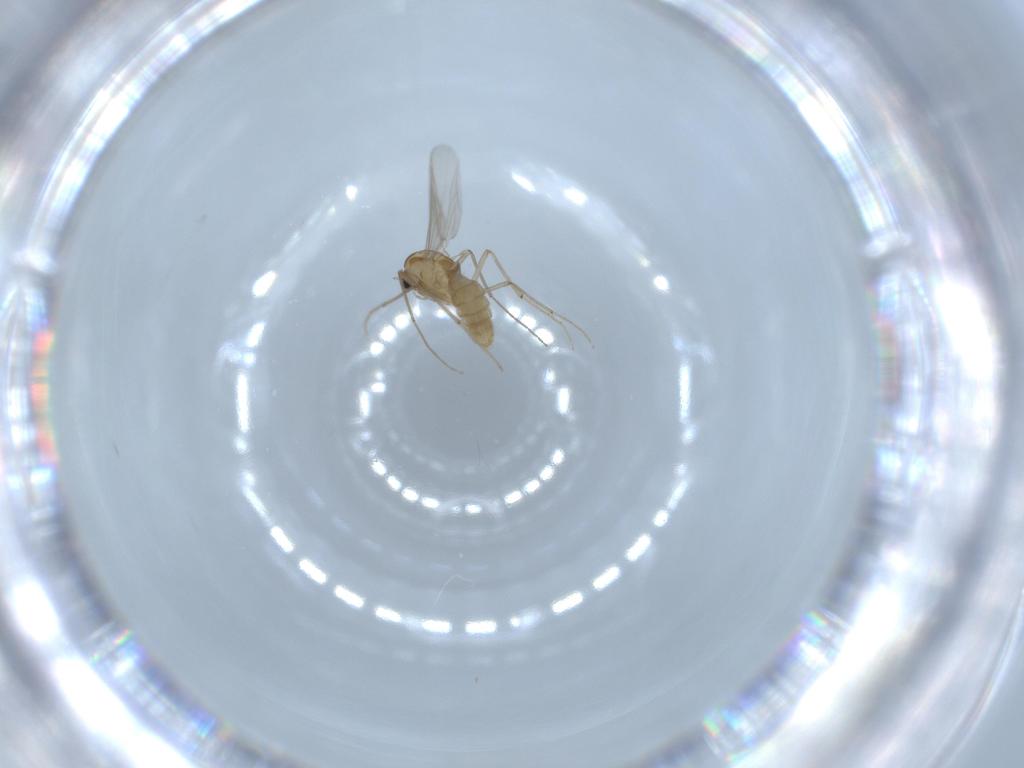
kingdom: Animalia
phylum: Arthropoda
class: Insecta
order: Diptera
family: Chironomidae
